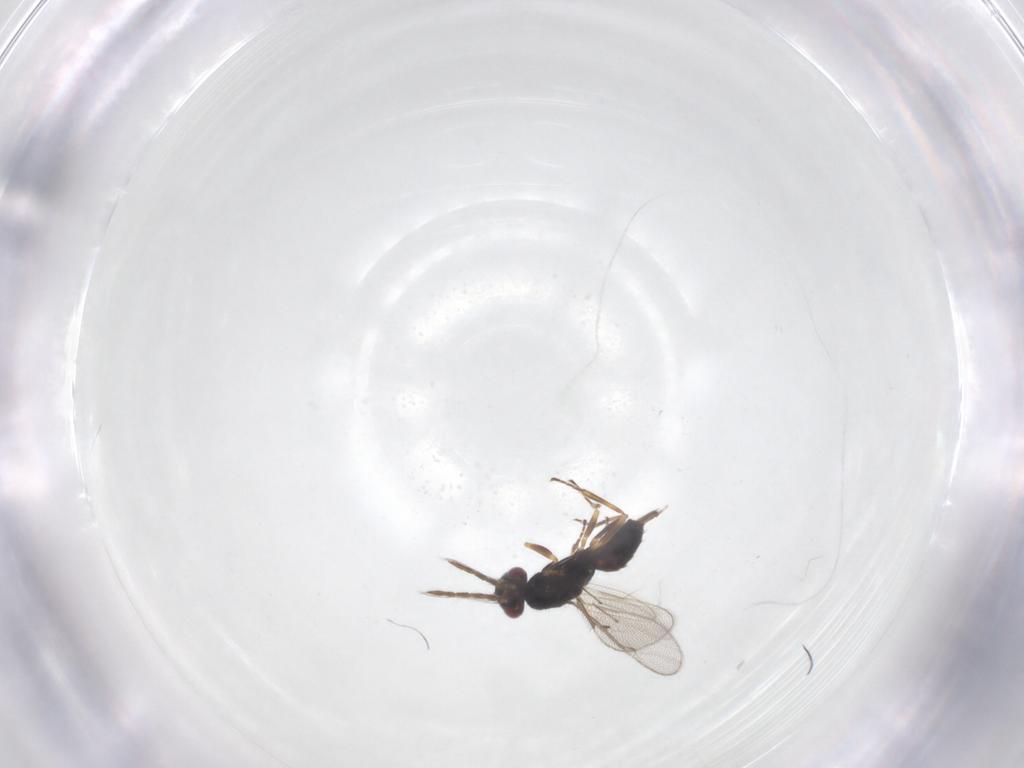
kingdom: Animalia
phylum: Arthropoda
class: Insecta
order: Hymenoptera
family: Eulophidae
